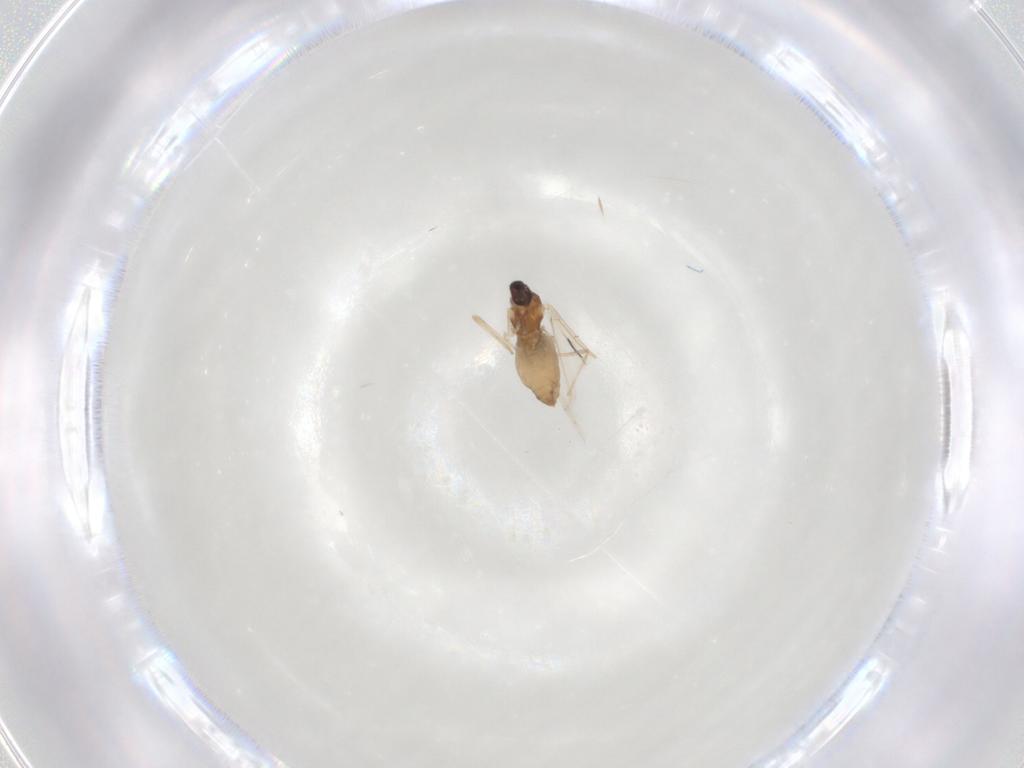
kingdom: Animalia
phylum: Arthropoda
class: Insecta
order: Diptera
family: Cecidomyiidae
